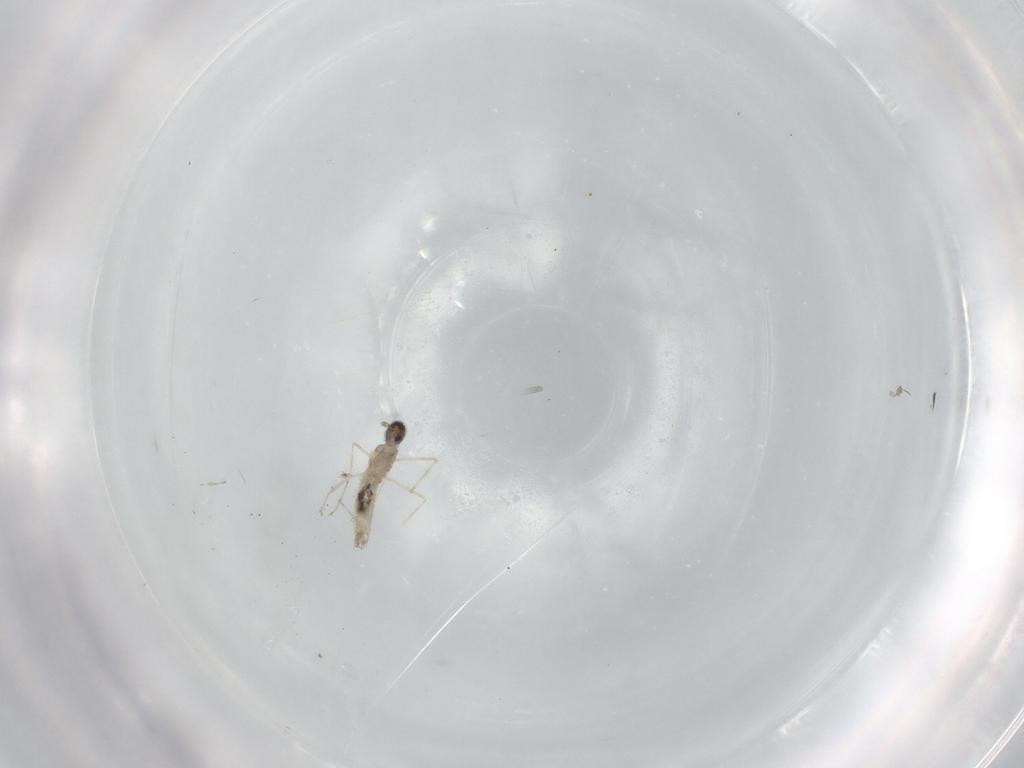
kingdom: Animalia
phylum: Arthropoda
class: Insecta
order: Diptera
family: Cecidomyiidae
